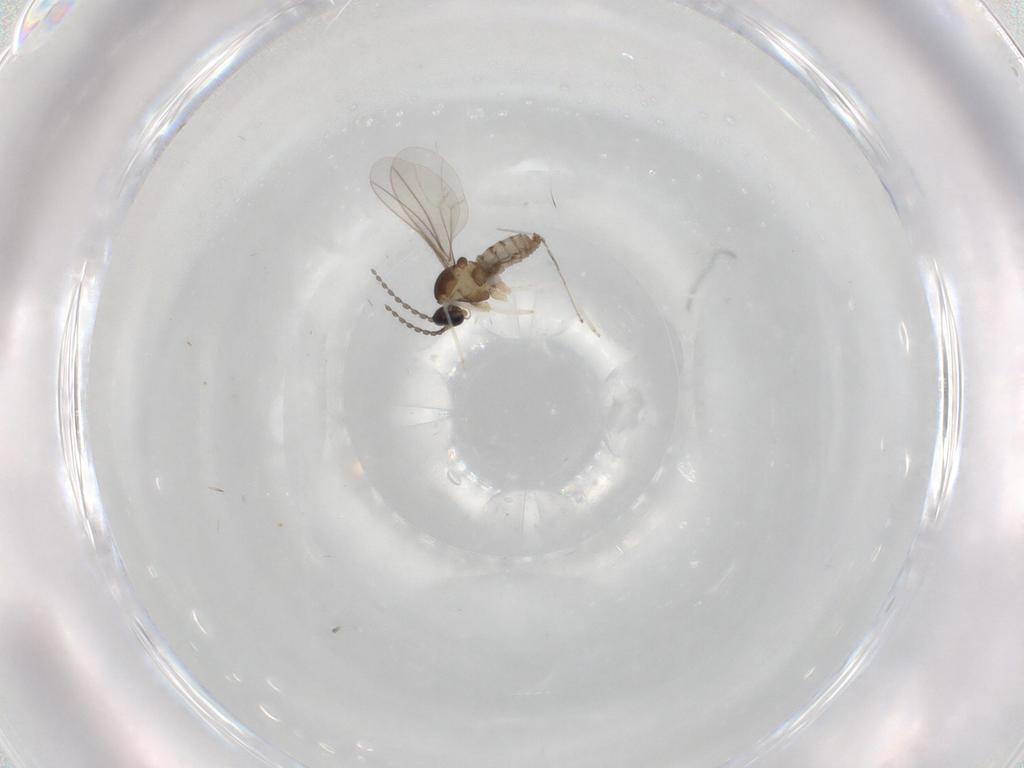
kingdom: Animalia
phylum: Arthropoda
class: Insecta
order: Diptera
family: Cecidomyiidae
